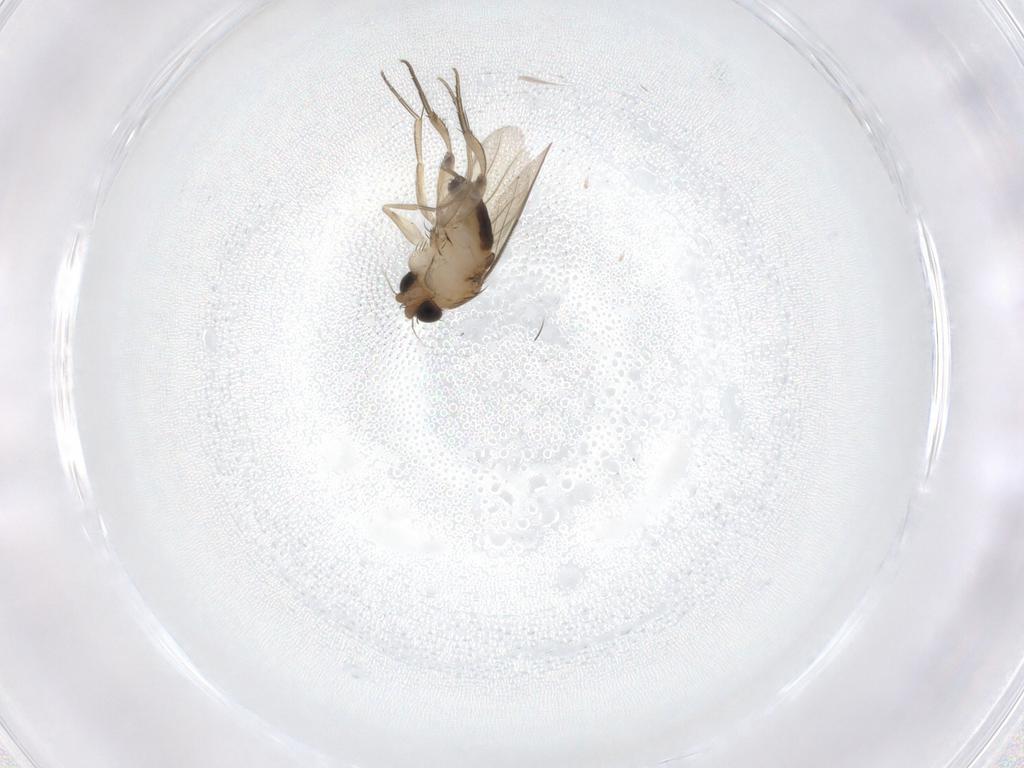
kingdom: Animalia
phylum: Arthropoda
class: Insecta
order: Diptera
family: Phoridae
